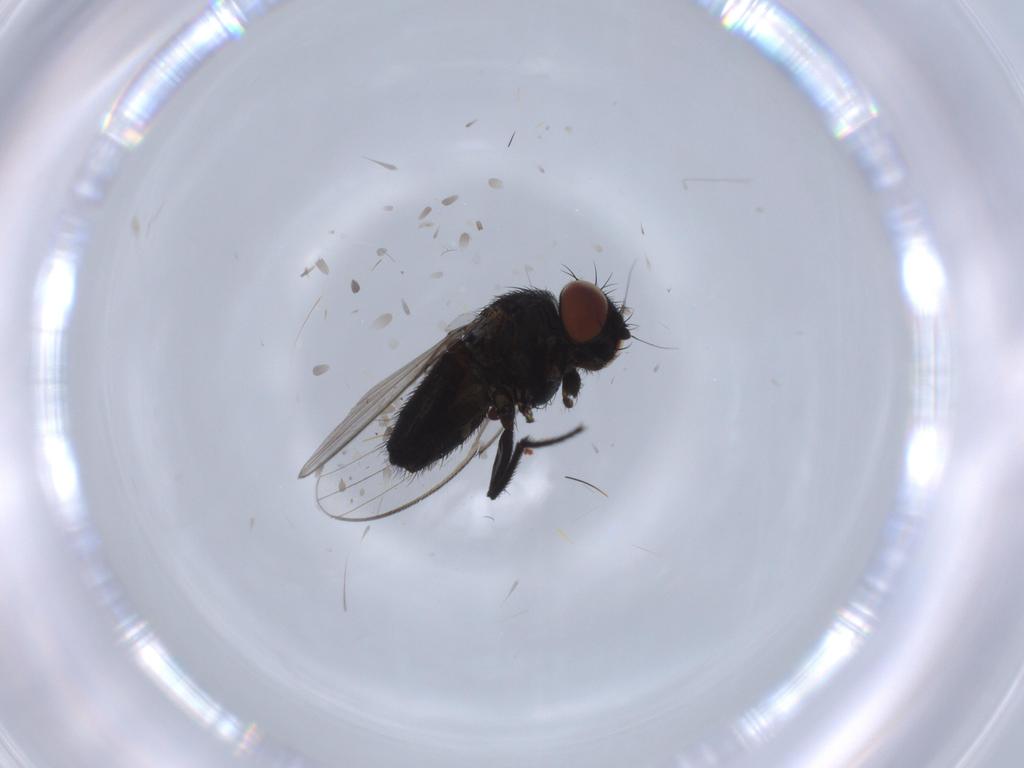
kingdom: Animalia
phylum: Arthropoda
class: Insecta
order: Diptera
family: Milichiidae
